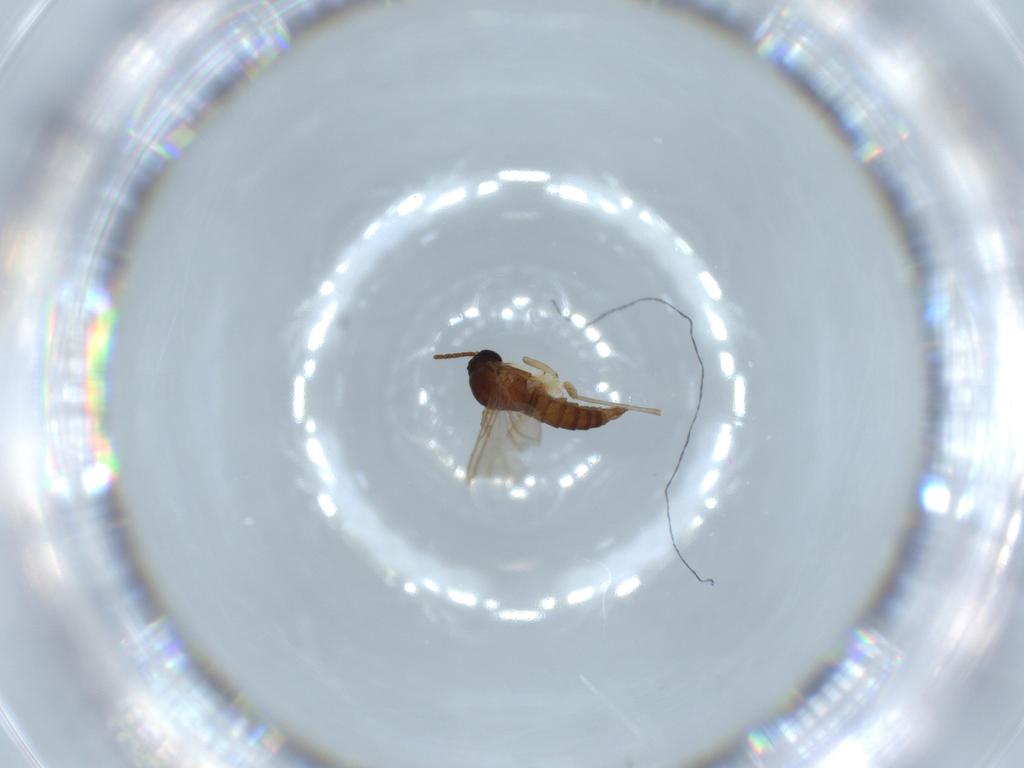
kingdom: Animalia
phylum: Arthropoda
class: Insecta
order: Diptera
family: Sciaridae
